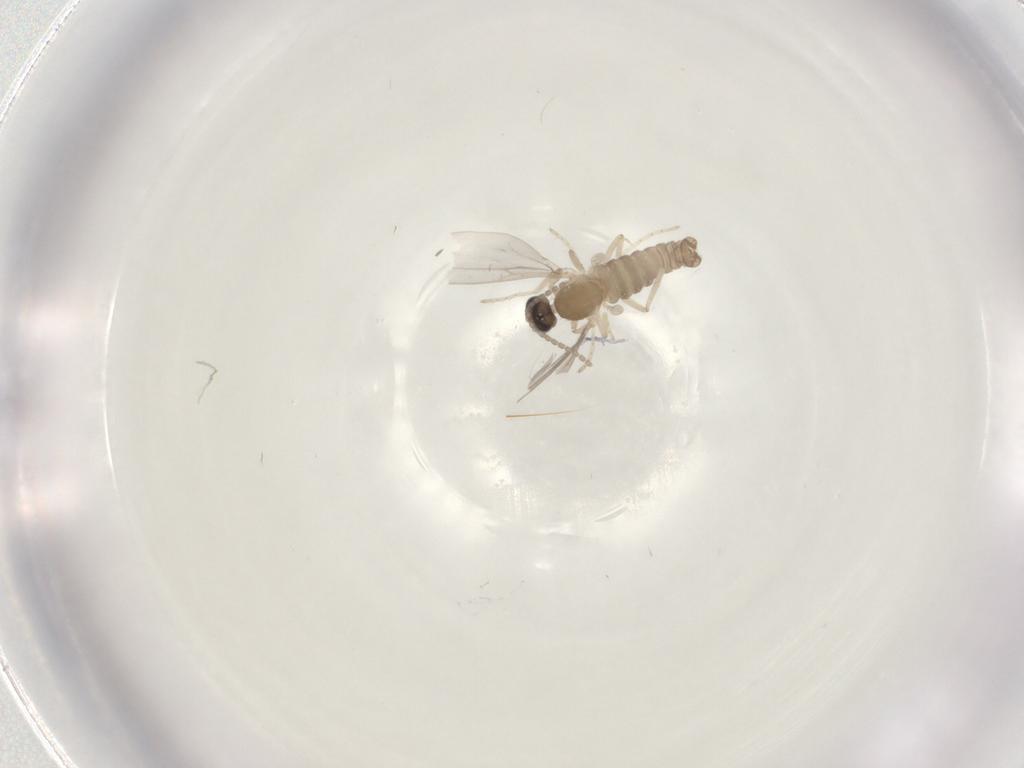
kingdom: Animalia
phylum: Arthropoda
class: Insecta
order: Diptera
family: Cecidomyiidae
